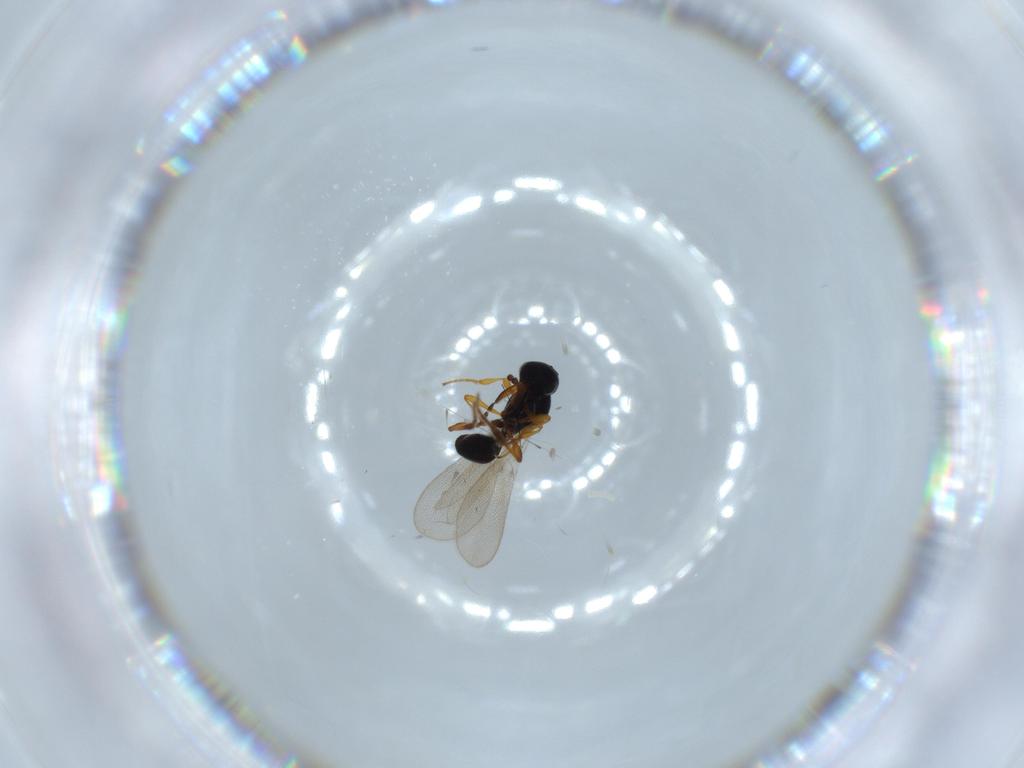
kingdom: Animalia
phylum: Arthropoda
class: Insecta
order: Hymenoptera
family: Platygastridae
